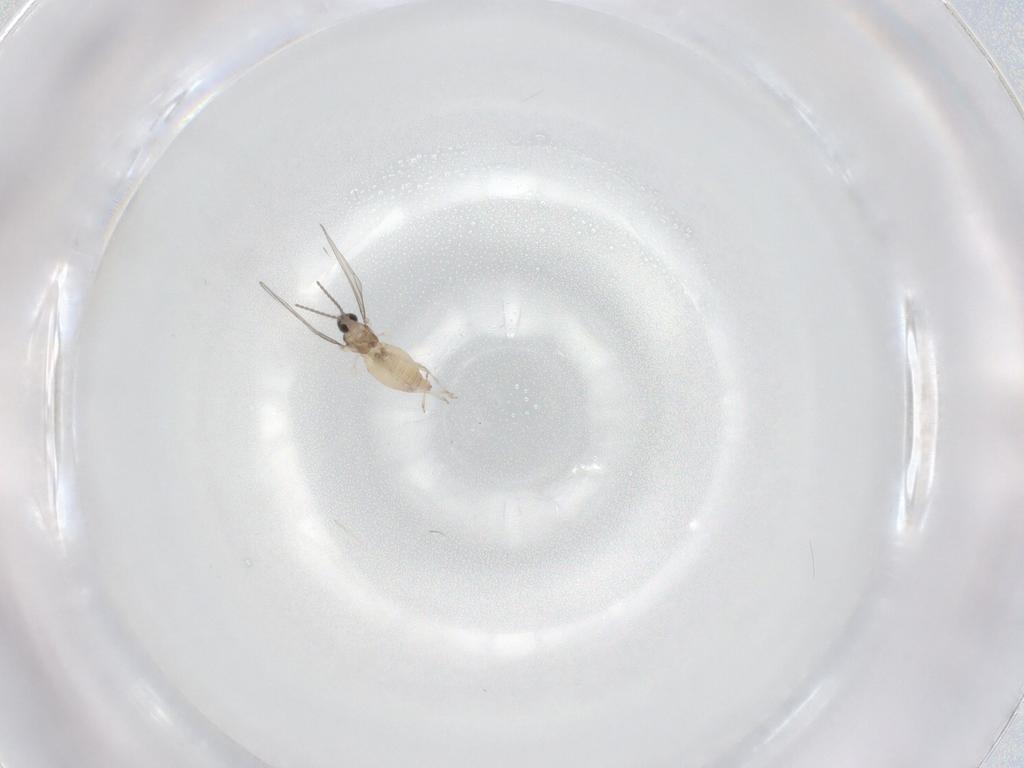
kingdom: Animalia
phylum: Arthropoda
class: Insecta
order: Diptera
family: Cecidomyiidae
